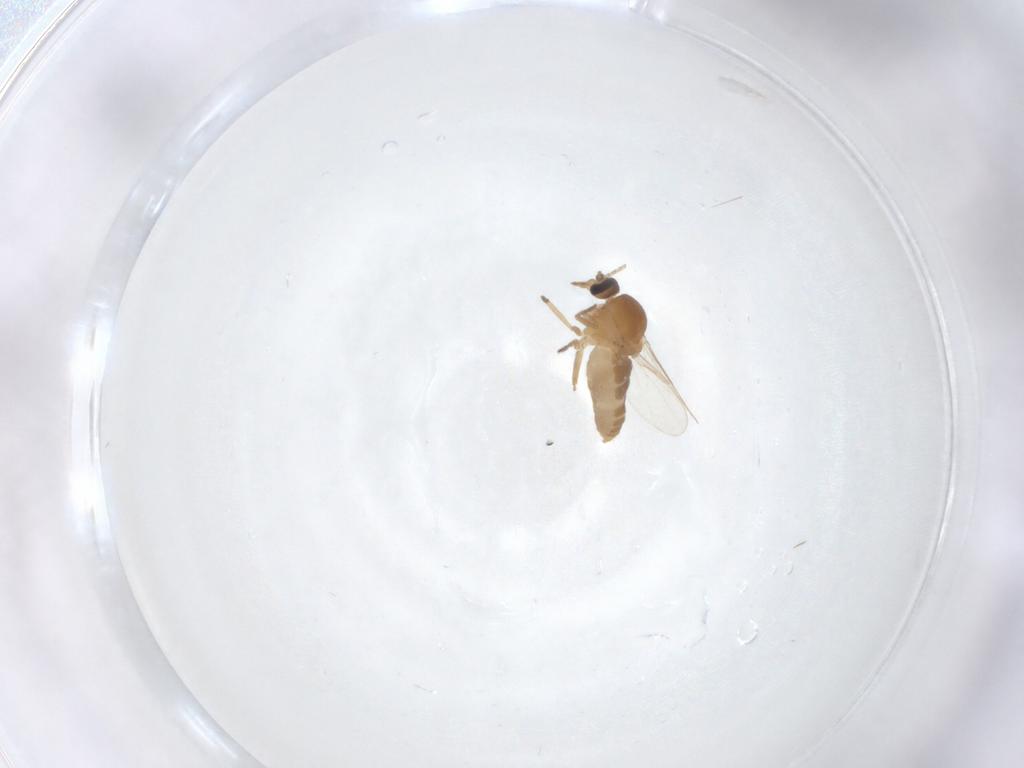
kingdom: Animalia
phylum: Arthropoda
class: Insecta
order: Diptera
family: Ceratopogonidae
